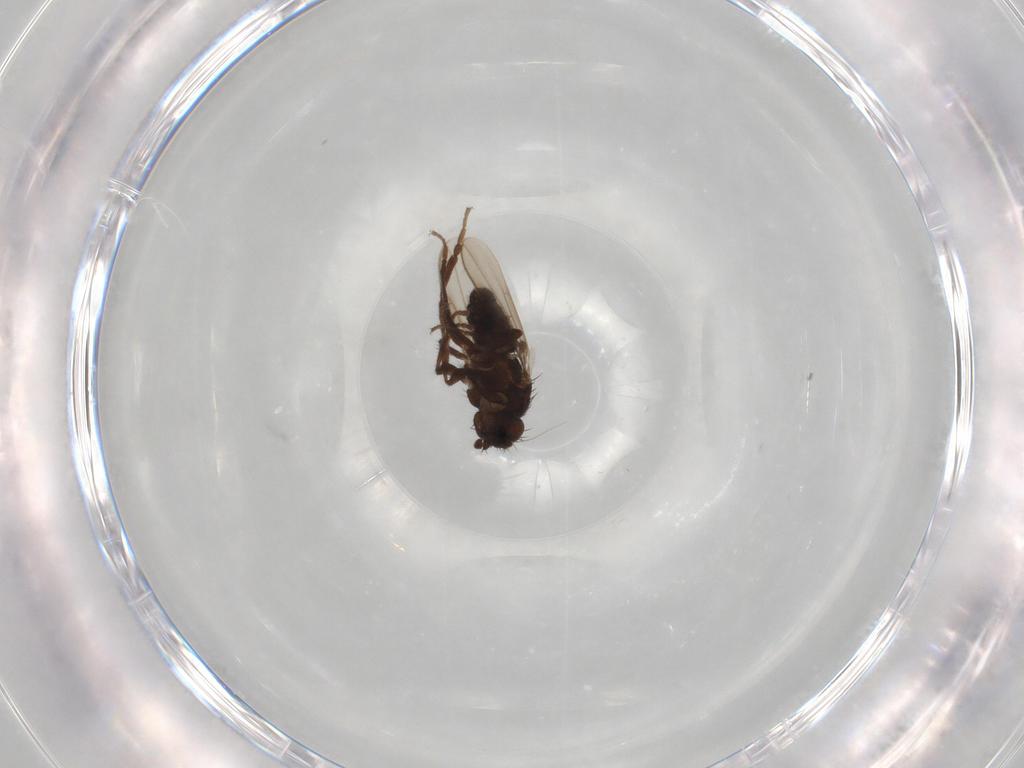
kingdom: Animalia
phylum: Arthropoda
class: Insecta
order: Diptera
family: Sphaeroceridae
